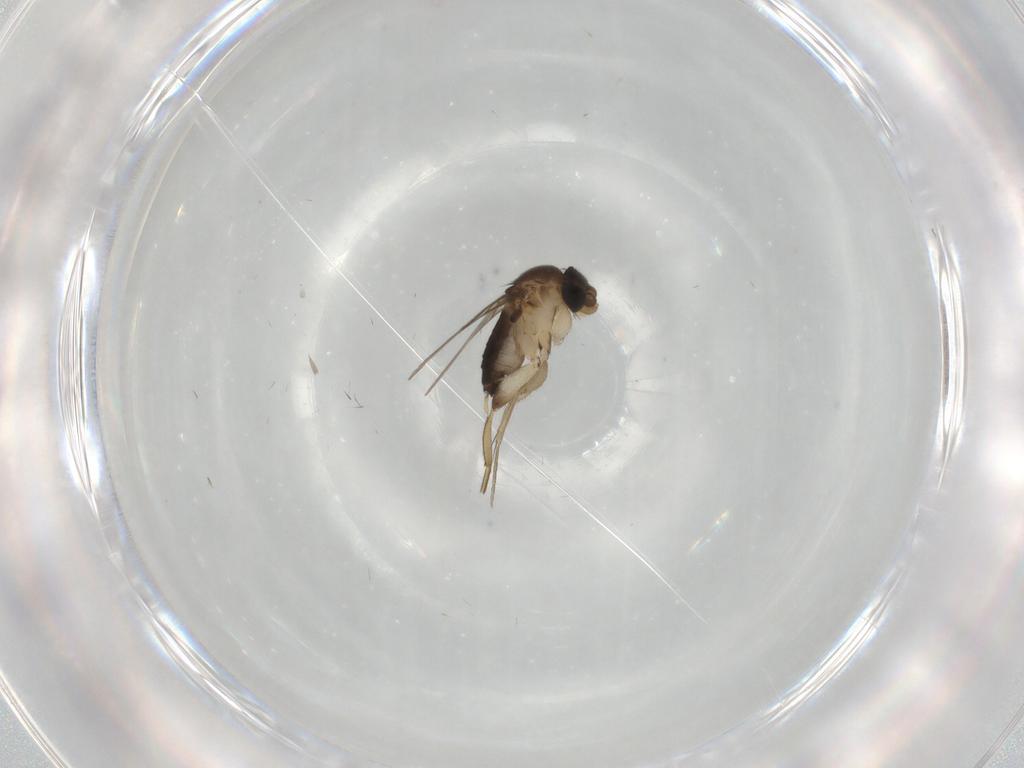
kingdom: Animalia
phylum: Arthropoda
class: Insecta
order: Diptera
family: Phoridae
